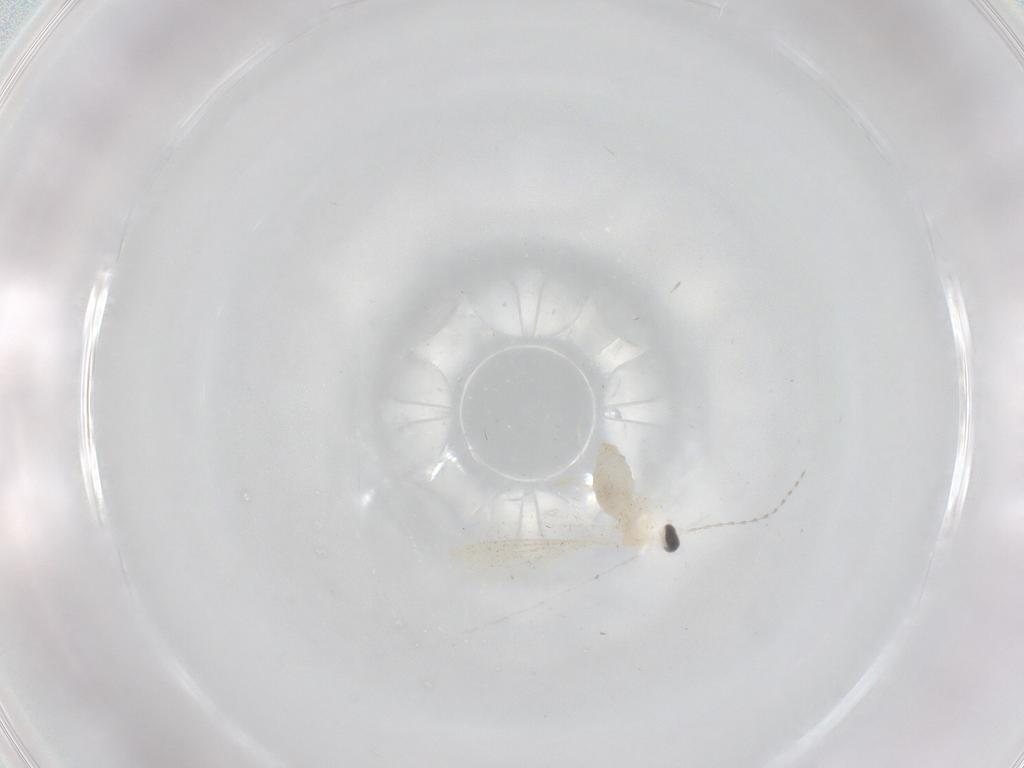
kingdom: Animalia
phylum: Arthropoda
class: Insecta
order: Diptera
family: Cecidomyiidae
